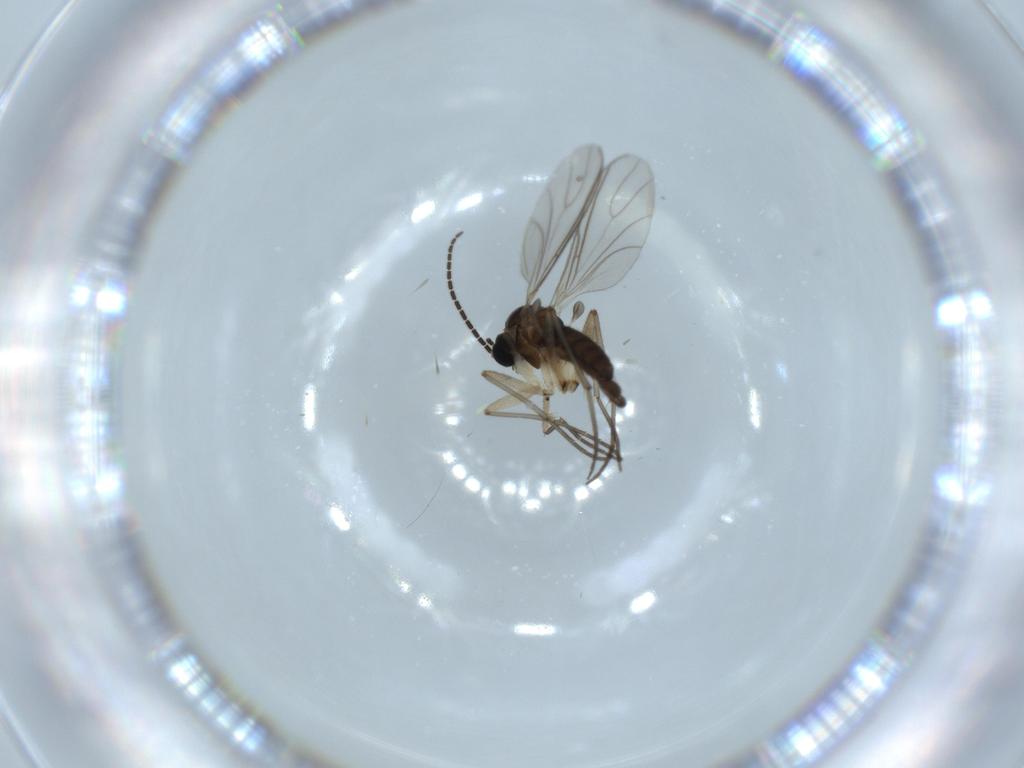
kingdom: Animalia
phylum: Arthropoda
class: Insecta
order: Diptera
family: Sciaridae
